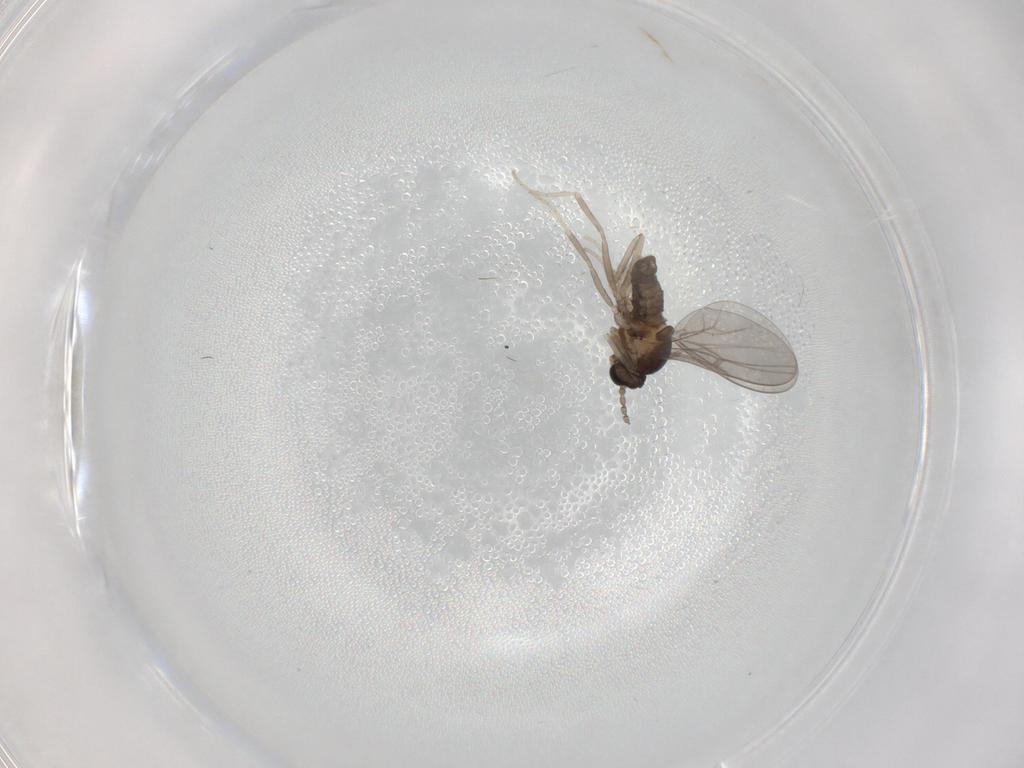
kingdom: Animalia
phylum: Arthropoda
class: Insecta
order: Diptera
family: Cecidomyiidae
